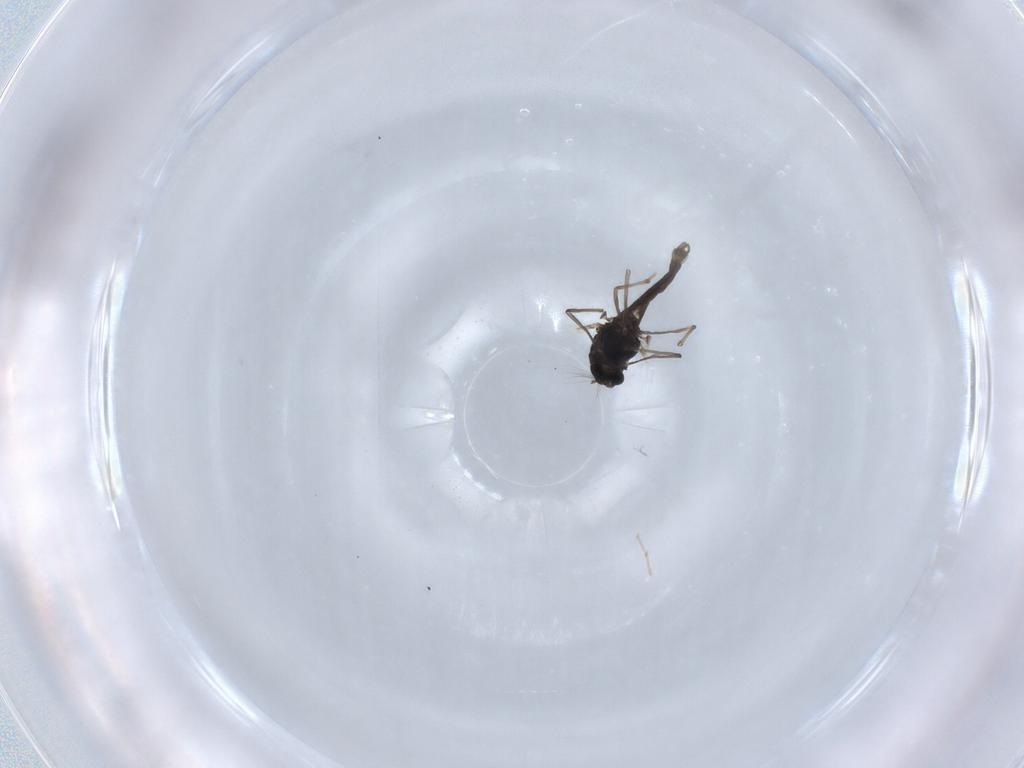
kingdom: Animalia
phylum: Arthropoda
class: Insecta
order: Diptera
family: Chironomidae
